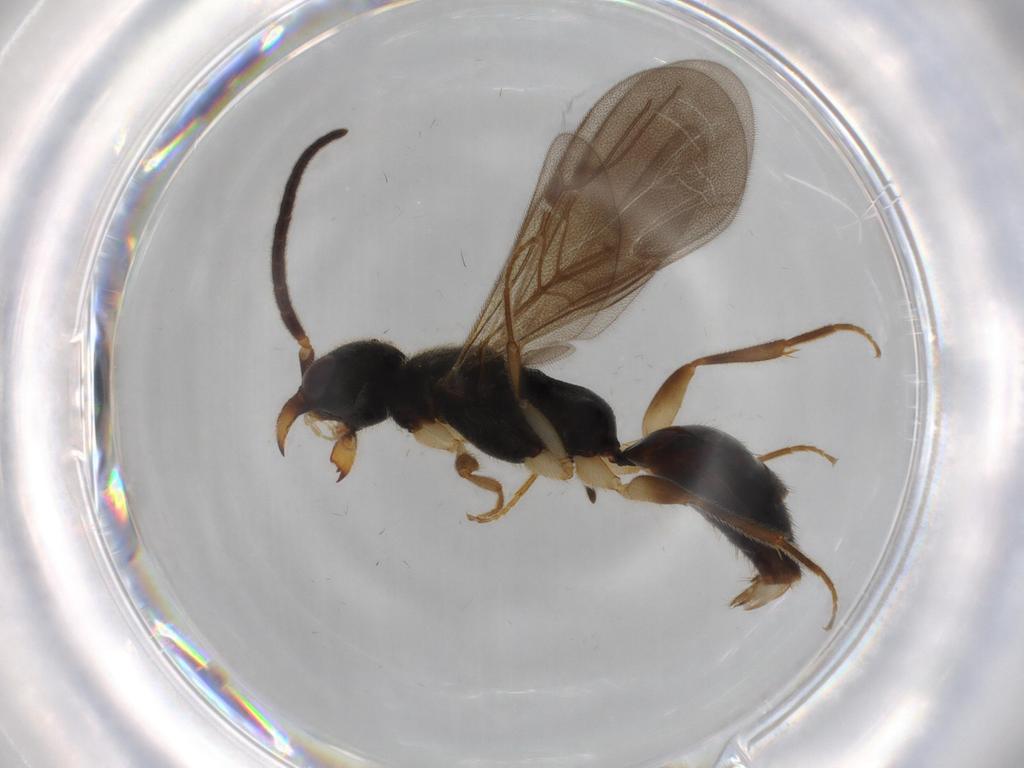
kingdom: Animalia
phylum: Arthropoda
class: Insecta
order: Hymenoptera
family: Bethylidae
